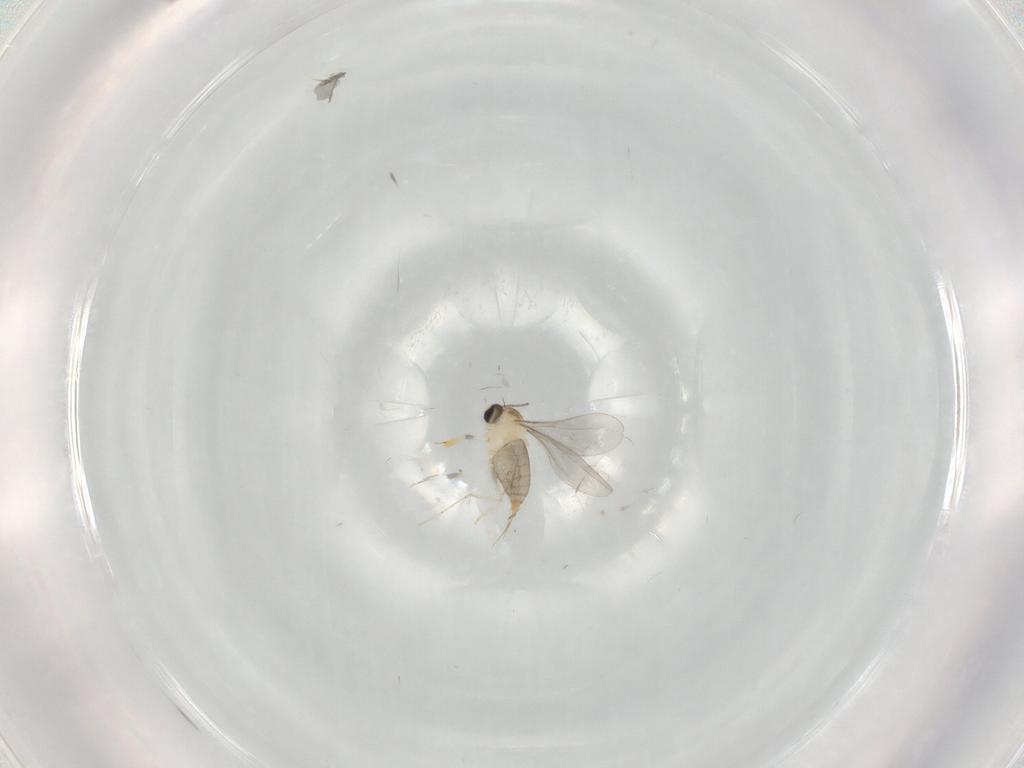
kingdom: Animalia
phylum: Arthropoda
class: Insecta
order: Diptera
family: Cecidomyiidae
